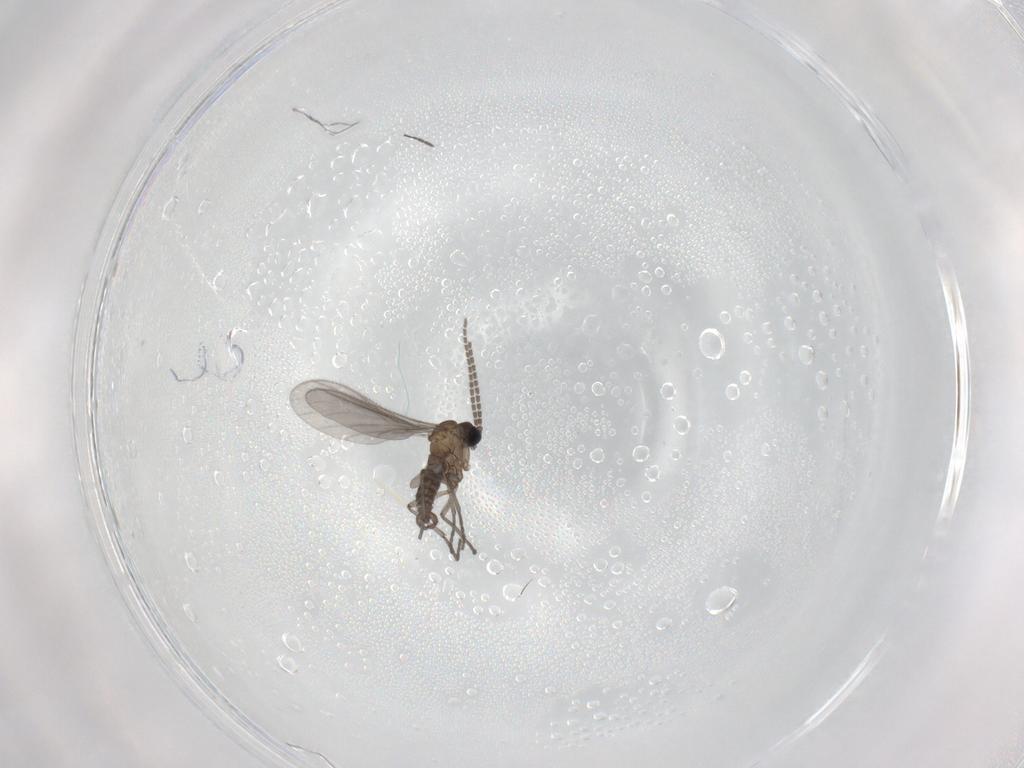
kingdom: Animalia
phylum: Arthropoda
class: Insecta
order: Diptera
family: Sciaridae
